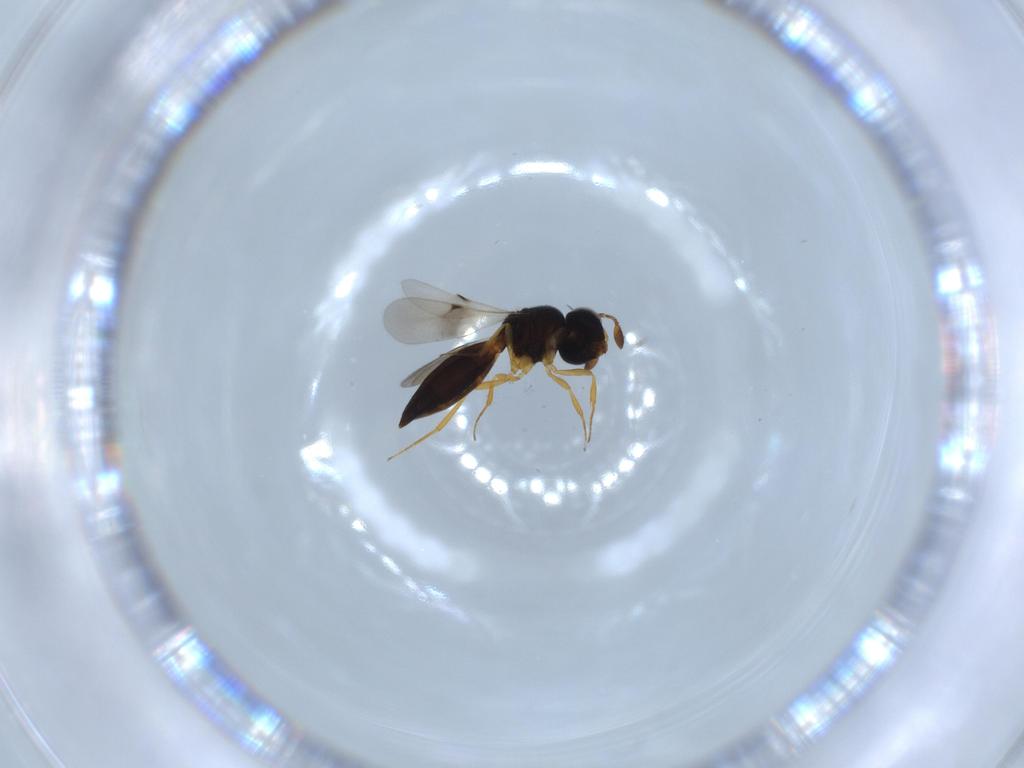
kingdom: Animalia
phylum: Arthropoda
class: Insecta
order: Hymenoptera
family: Scelionidae
